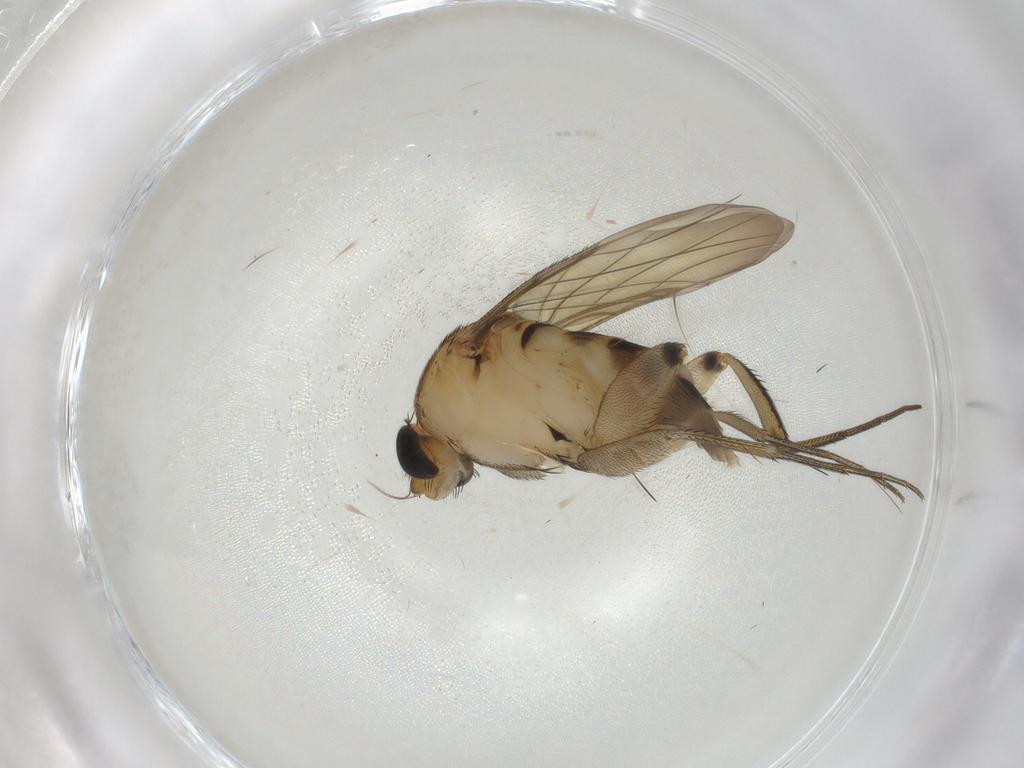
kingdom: Animalia
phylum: Arthropoda
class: Insecta
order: Diptera
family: Phoridae
